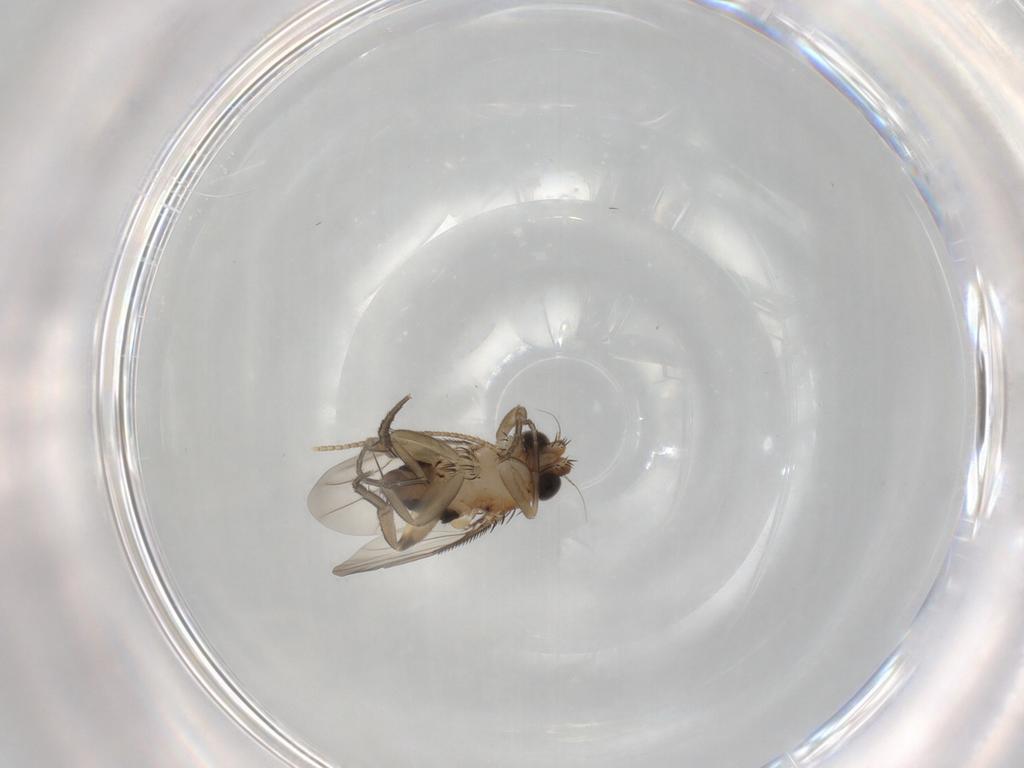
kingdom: Animalia
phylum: Arthropoda
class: Insecta
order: Diptera
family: Phoridae
